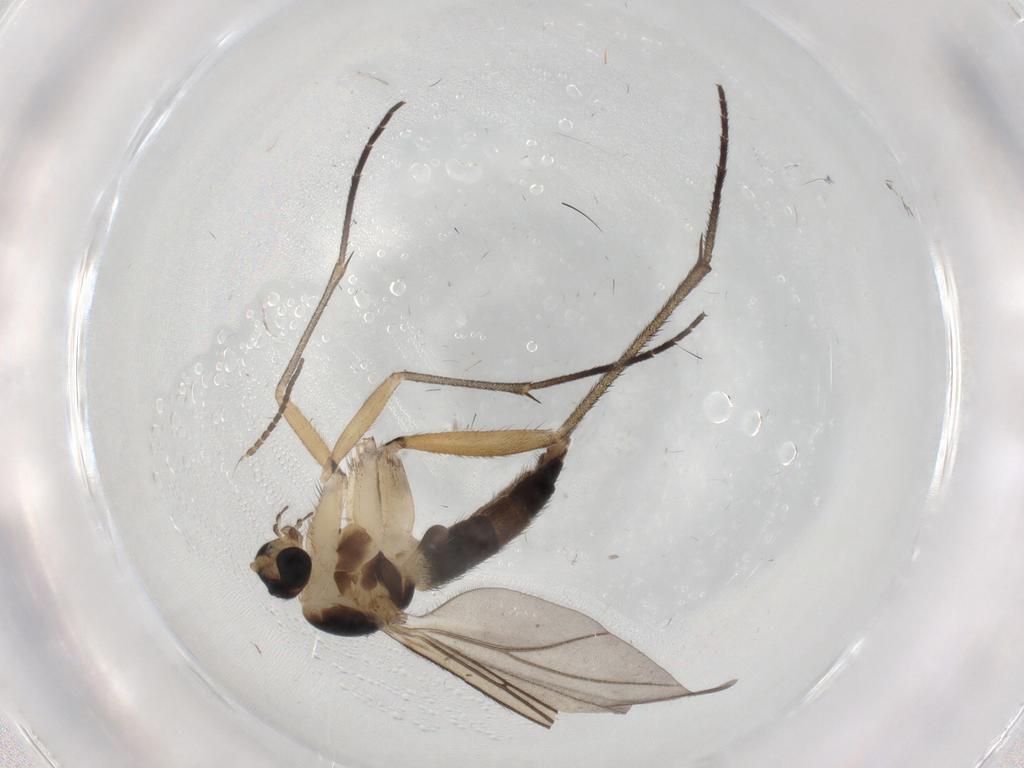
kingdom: Animalia
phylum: Arthropoda
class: Insecta
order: Diptera
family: Sciaridae
